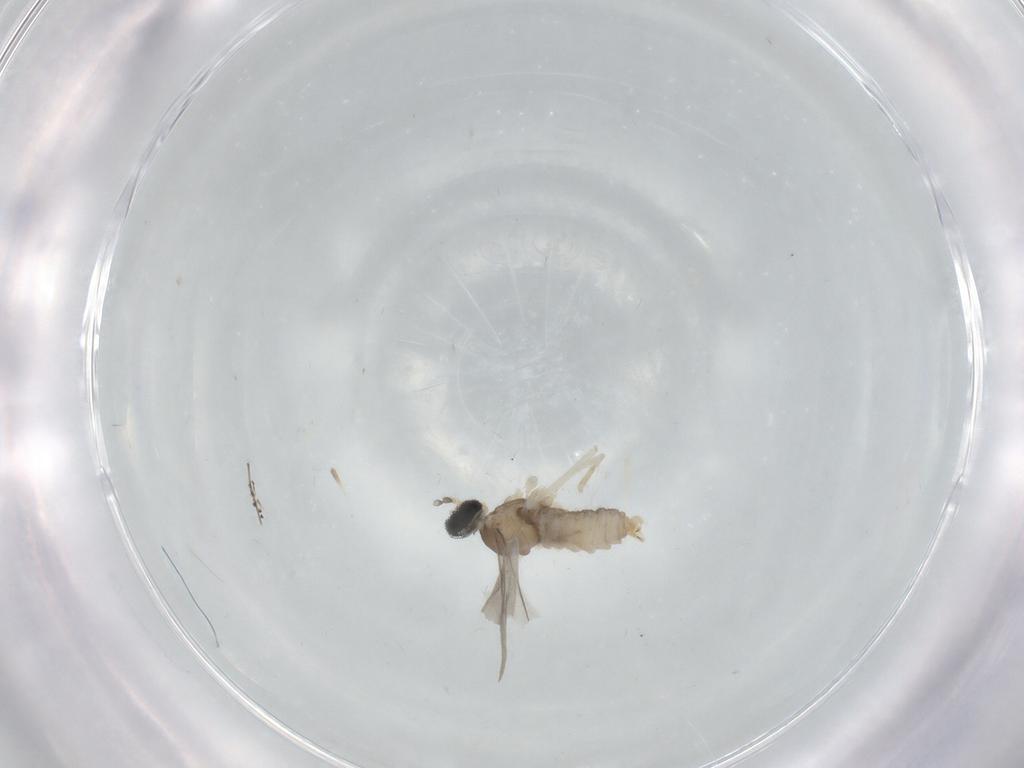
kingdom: Animalia
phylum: Arthropoda
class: Insecta
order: Diptera
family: Cecidomyiidae
